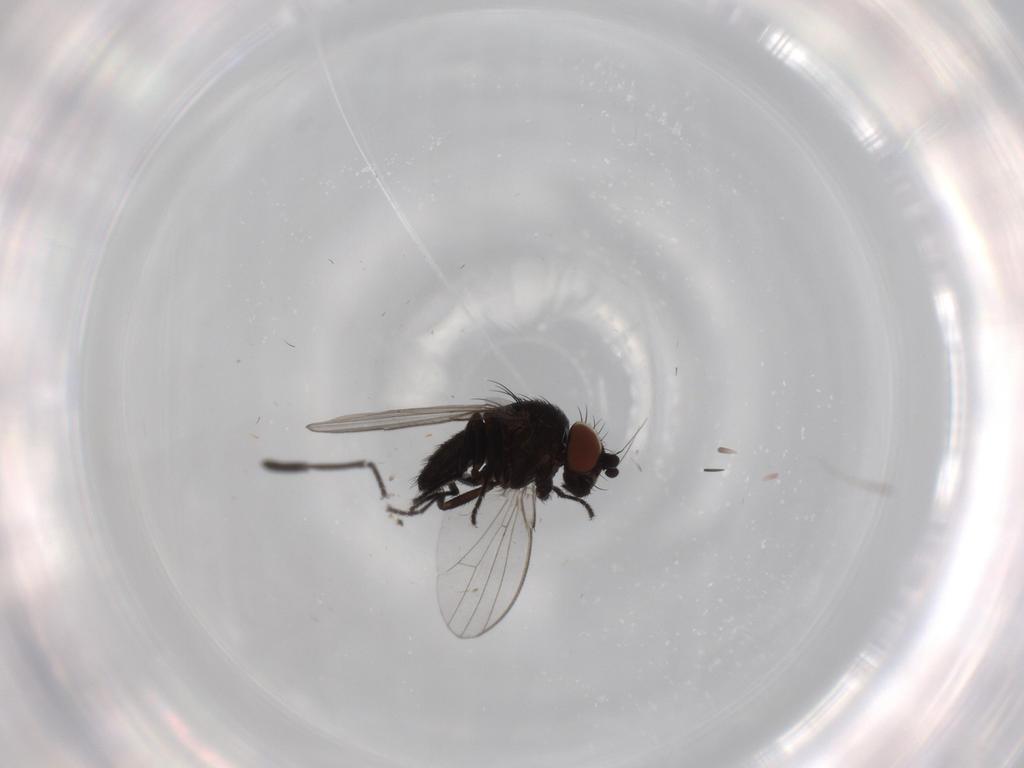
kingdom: Animalia
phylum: Arthropoda
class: Insecta
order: Diptera
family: Milichiidae
